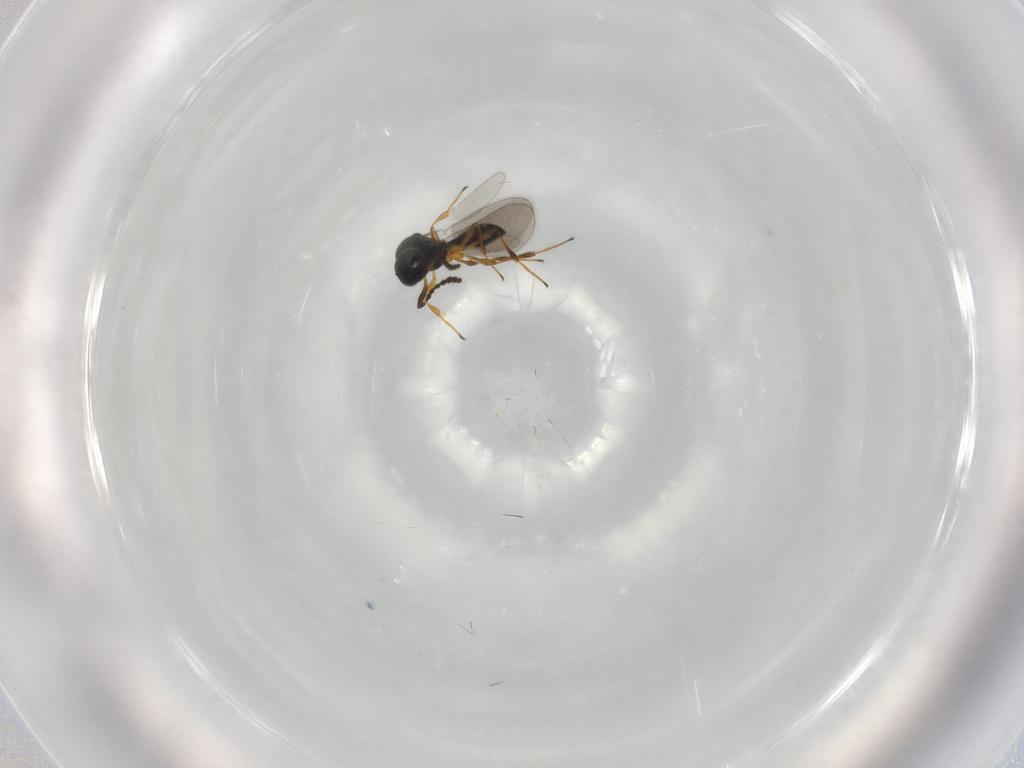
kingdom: Animalia
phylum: Arthropoda
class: Insecta
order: Hymenoptera
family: Platygastridae
